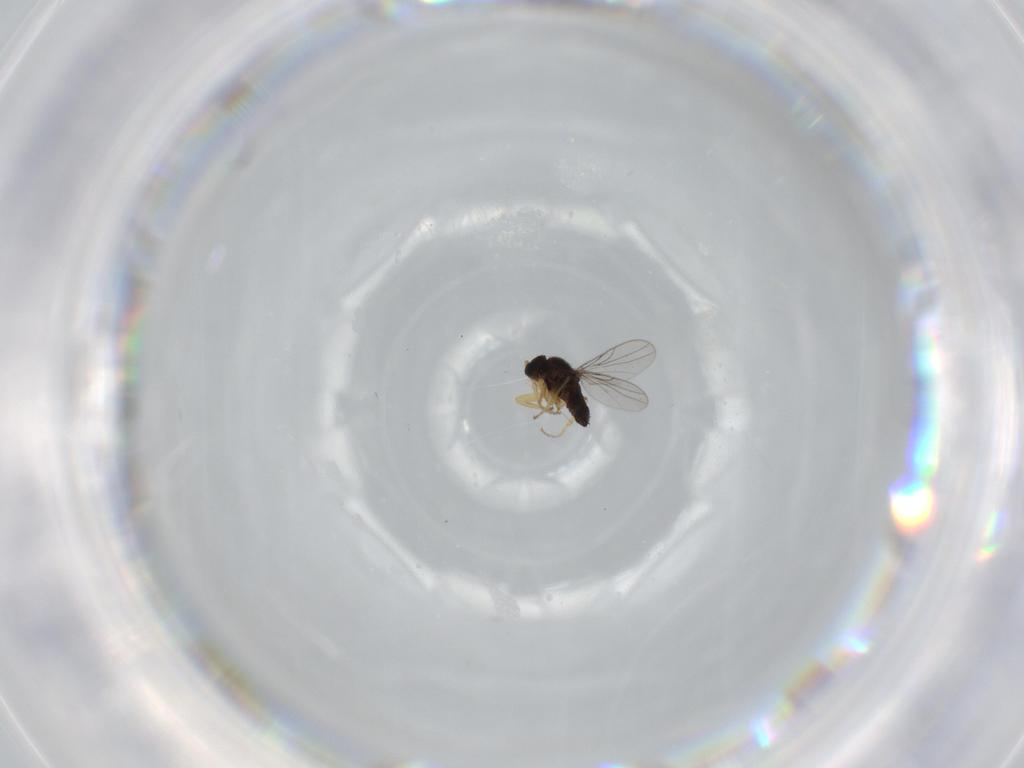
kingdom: Animalia
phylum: Arthropoda
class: Insecta
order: Diptera
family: Hybotidae
